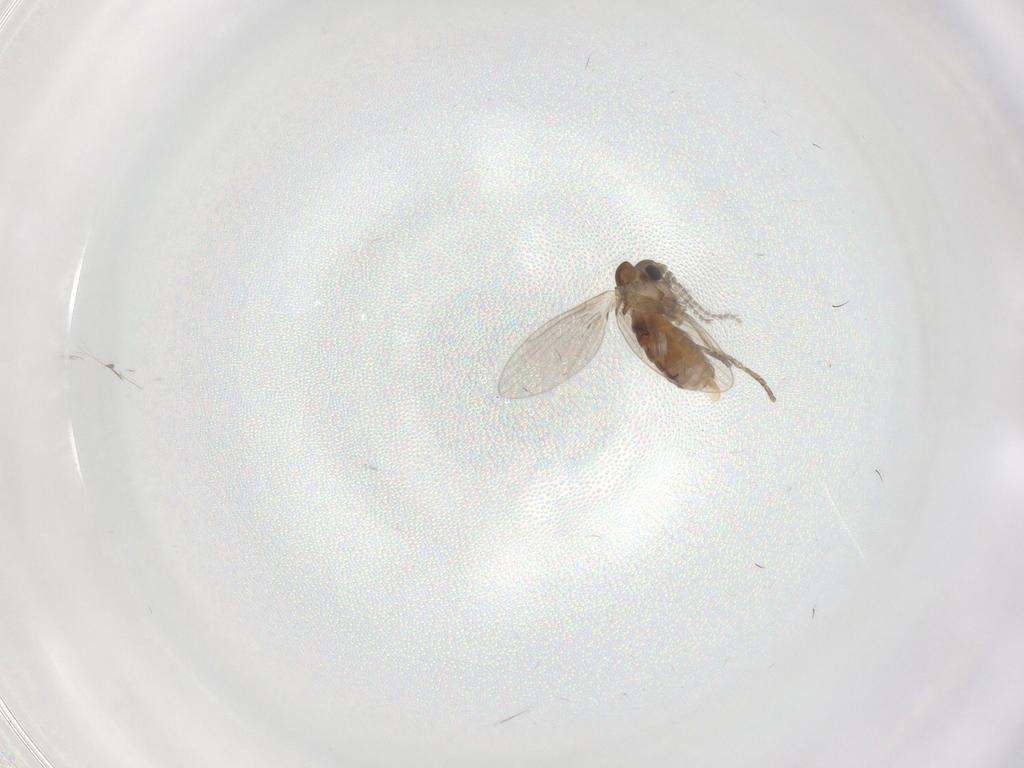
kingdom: Animalia
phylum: Arthropoda
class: Insecta
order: Diptera
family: Psychodidae
